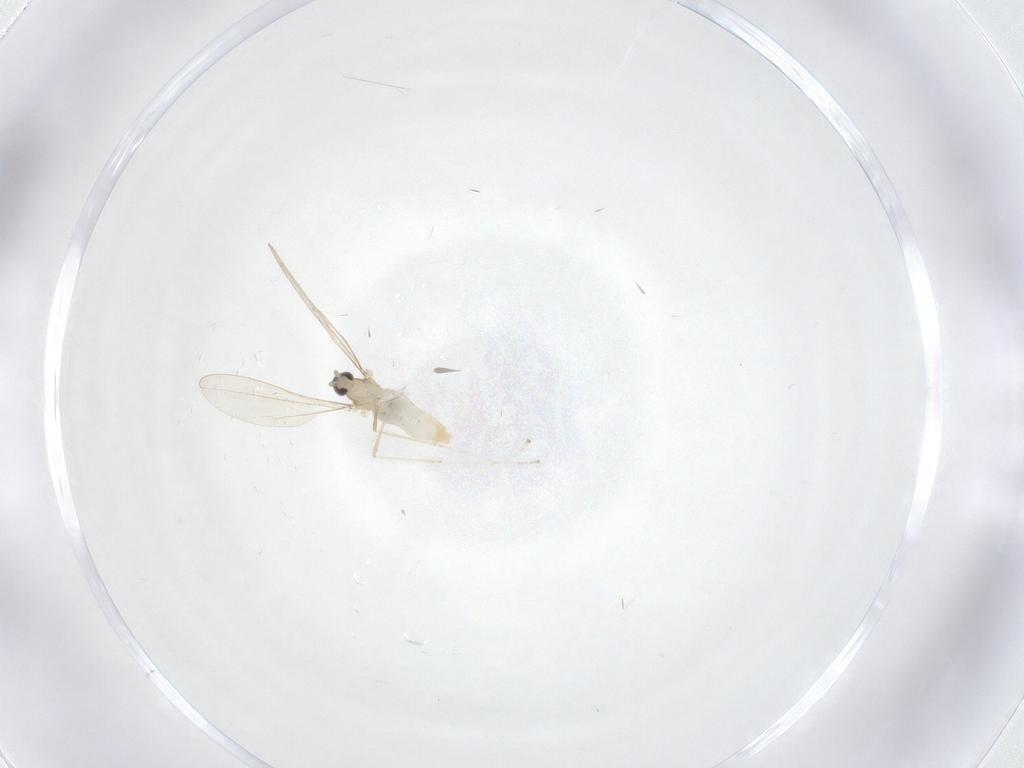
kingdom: Animalia
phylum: Arthropoda
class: Insecta
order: Diptera
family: Cecidomyiidae
